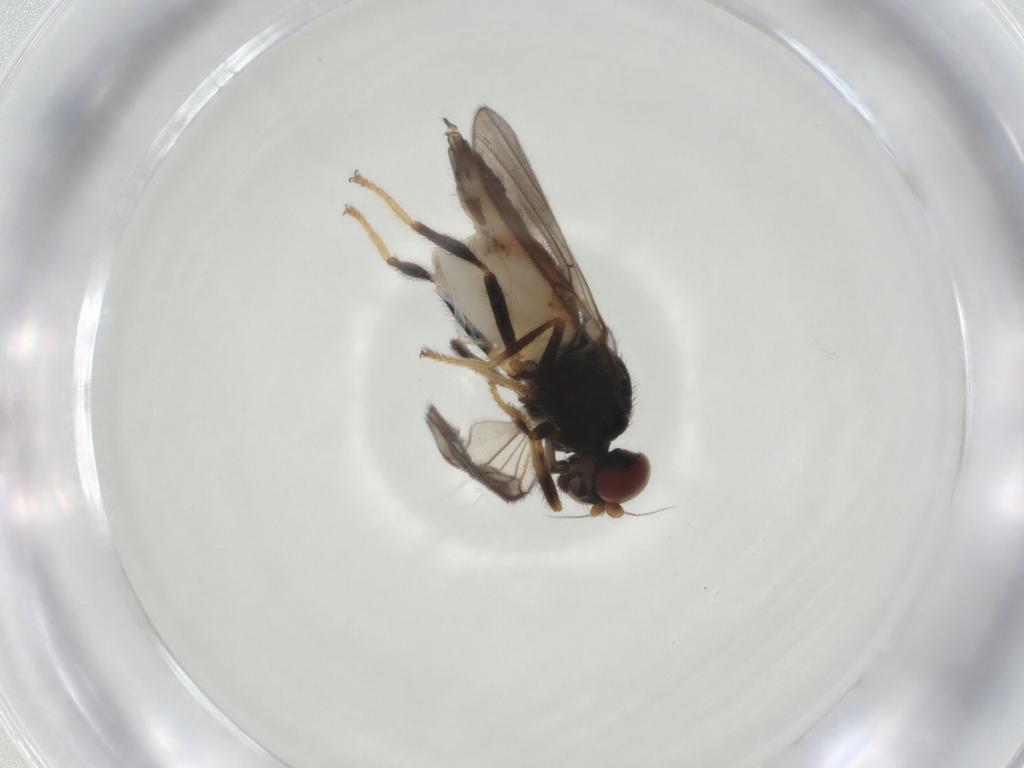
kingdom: Animalia
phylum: Arthropoda
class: Insecta
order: Diptera
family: Chloropidae
